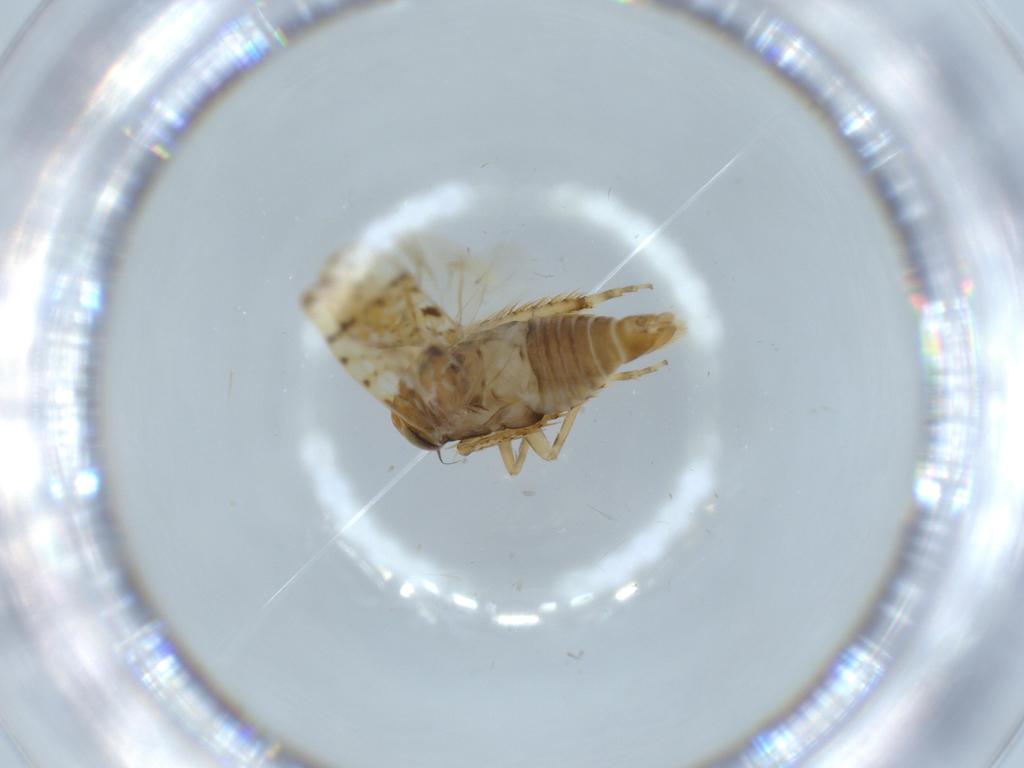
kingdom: Animalia
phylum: Arthropoda
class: Insecta
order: Hemiptera
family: Cicadellidae
